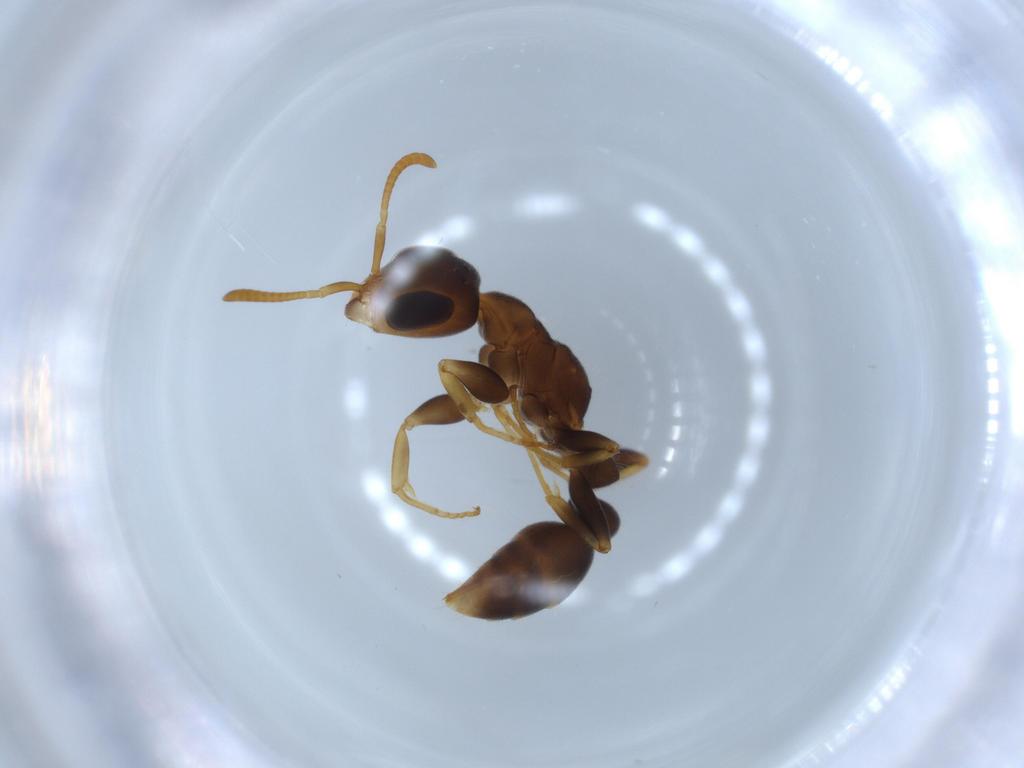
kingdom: Animalia
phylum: Arthropoda
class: Insecta
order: Hymenoptera
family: Formicidae
